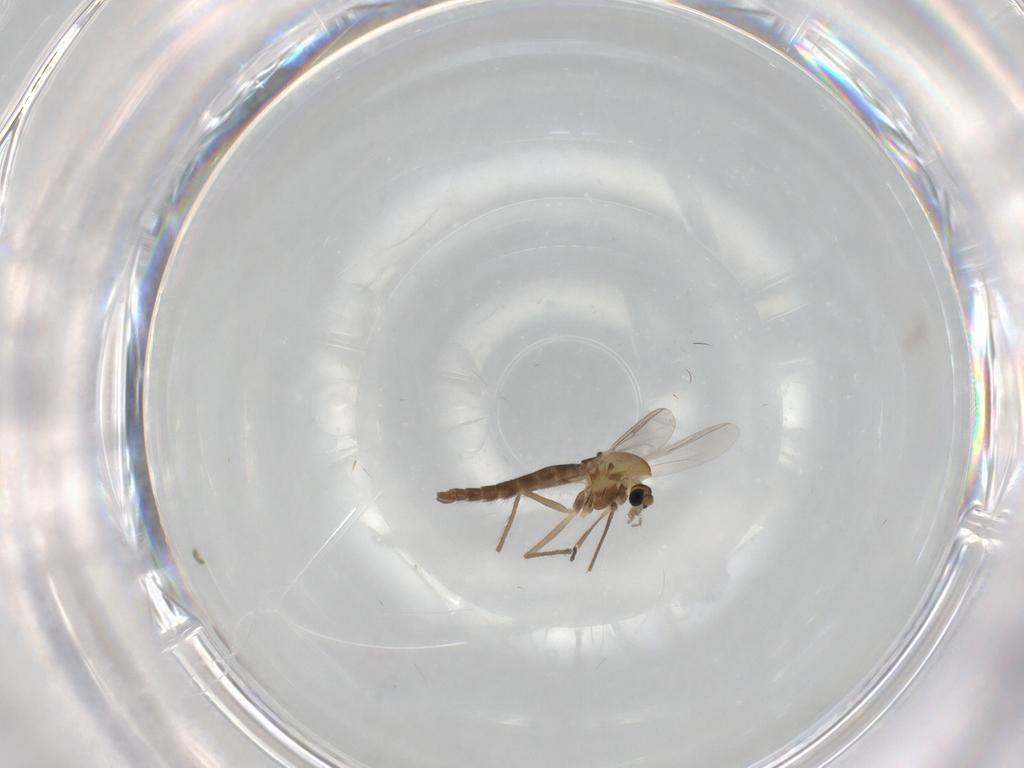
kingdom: Animalia
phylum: Arthropoda
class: Insecta
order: Diptera
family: Chironomidae
